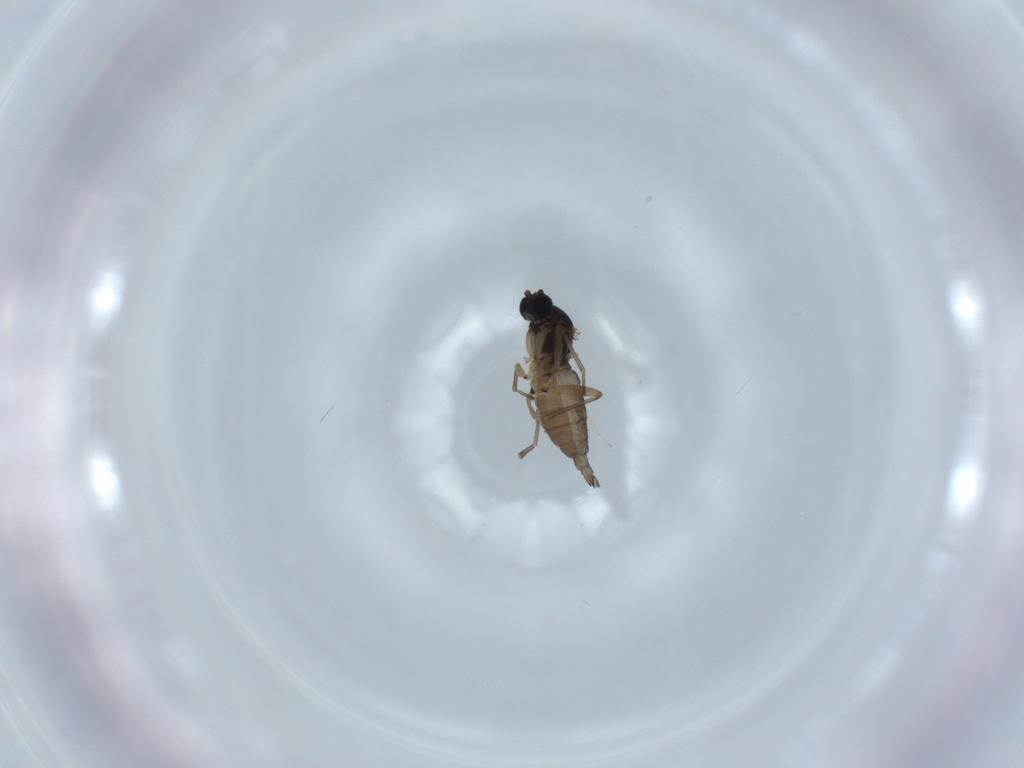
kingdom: Animalia
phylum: Arthropoda
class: Insecta
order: Diptera
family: Sciaridae
